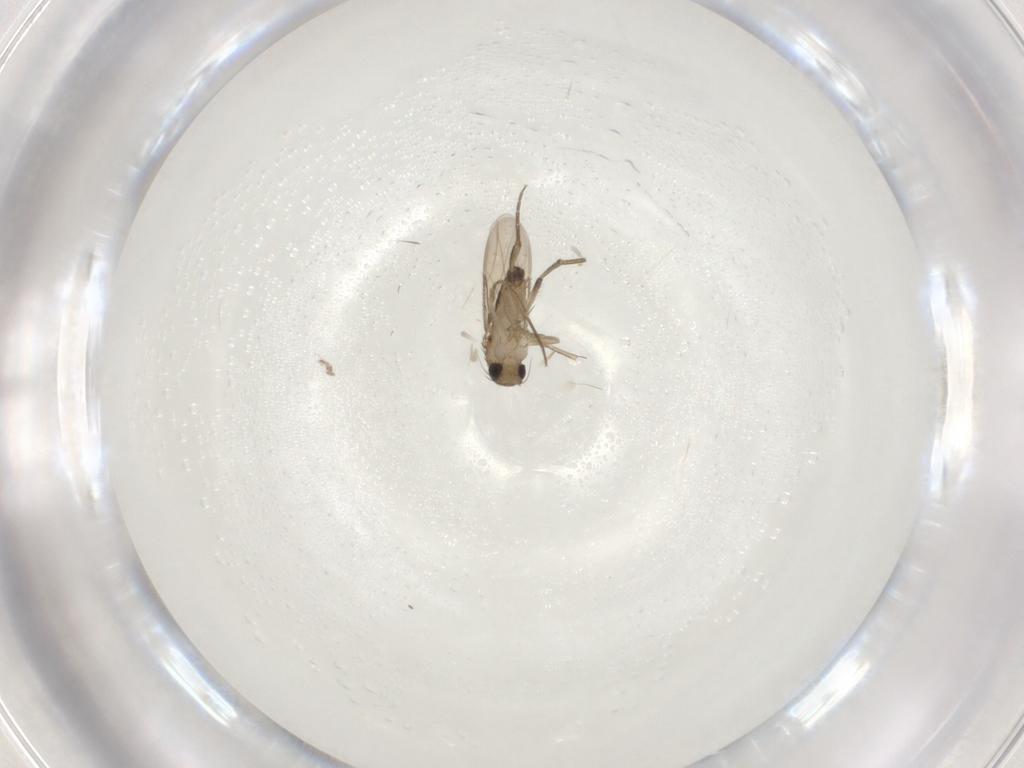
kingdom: Animalia
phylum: Arthropoda
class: Insecta
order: Diptera
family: Phoridae
